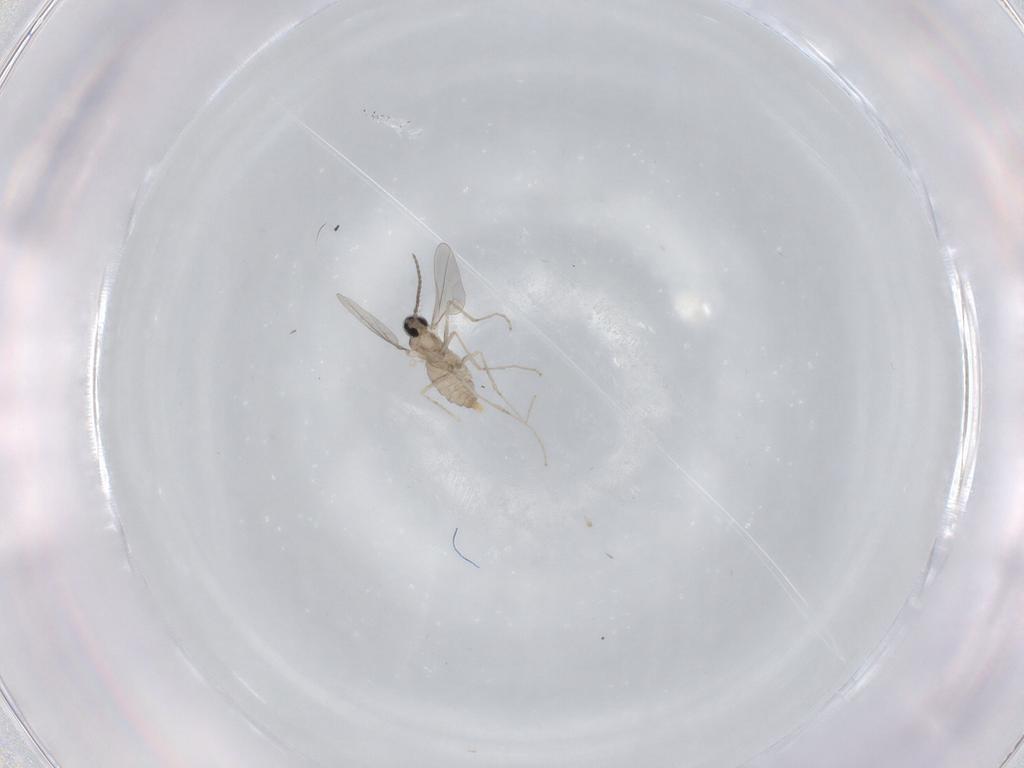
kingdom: Animalia
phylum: Arthropoda
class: Insecta
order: Diptera
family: Cecidomyiidae
